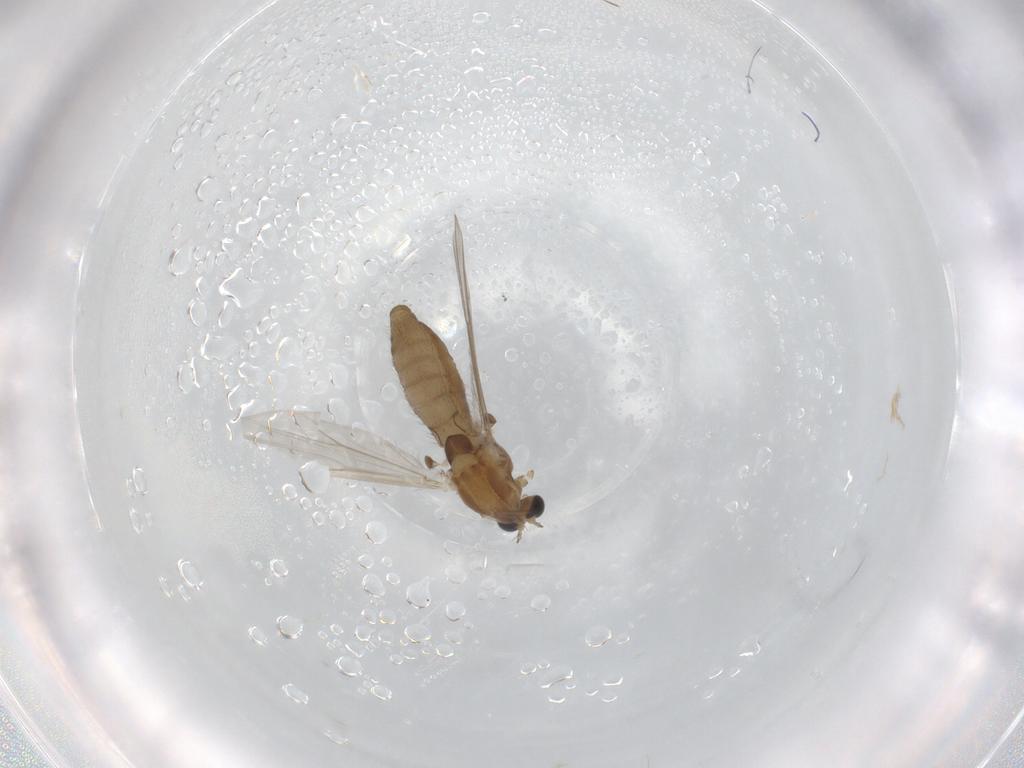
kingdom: Animalia
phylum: Arthropoda
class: Insecta
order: Diptera
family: Chironomidae
